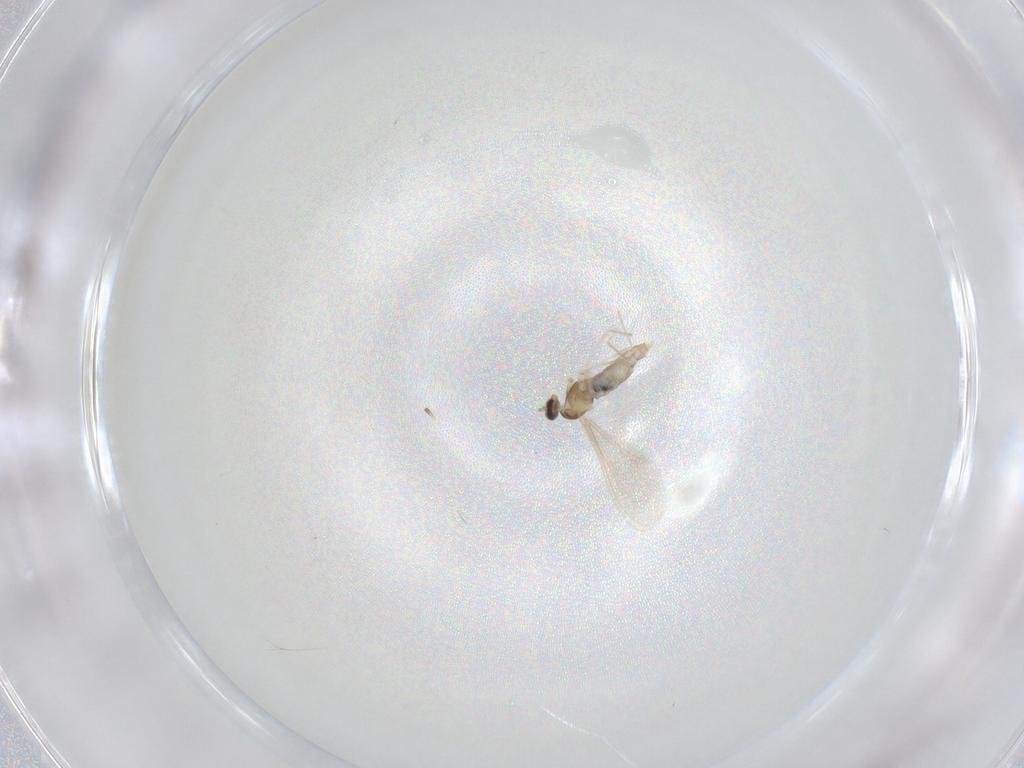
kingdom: Animalia
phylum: Arthropoda
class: Insecta
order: Diptera
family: Cecidomyiidae
